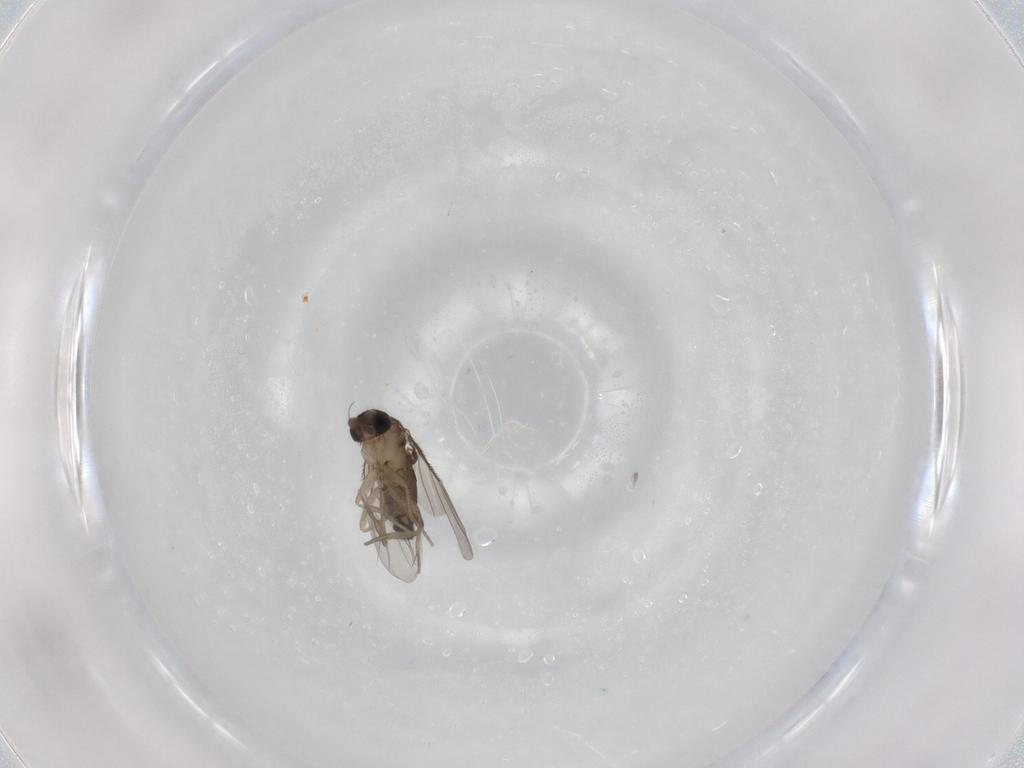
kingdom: Animalia
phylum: Arthropoda
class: Insecta
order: Diptera
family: Phoridae
